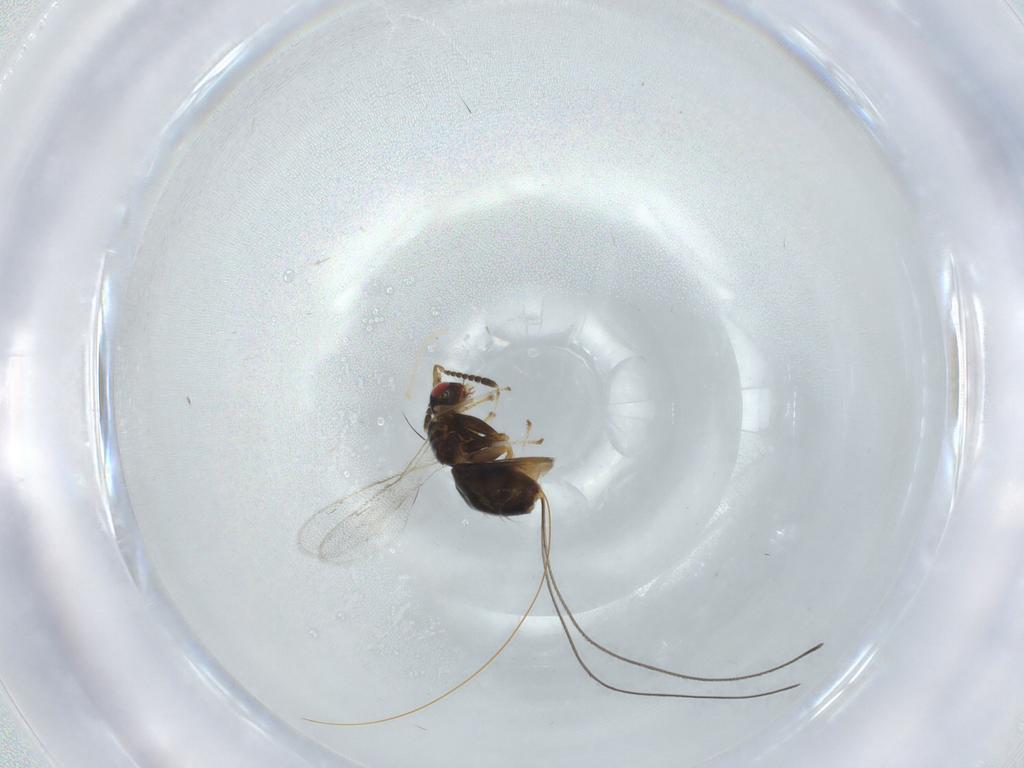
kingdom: Animalia
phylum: Arthropoda
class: Insecta
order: Hymenoptera
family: Torymidae
